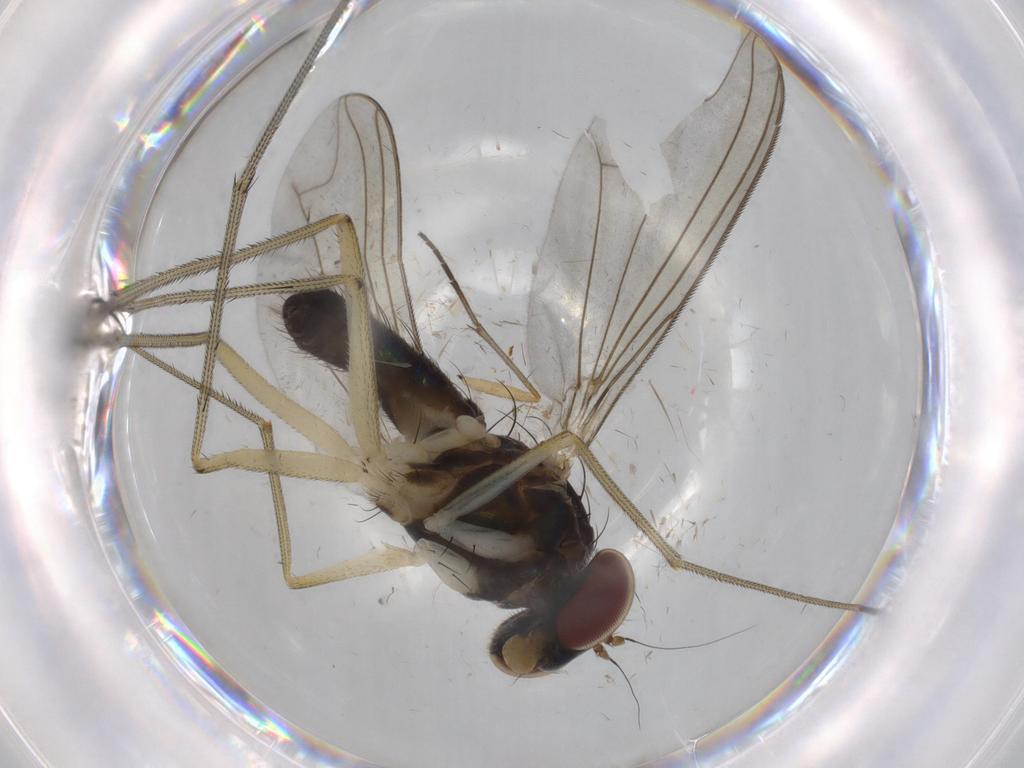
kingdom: Animalia
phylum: Arthropoda
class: Insecta
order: Diptera
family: Dolichopodidae
